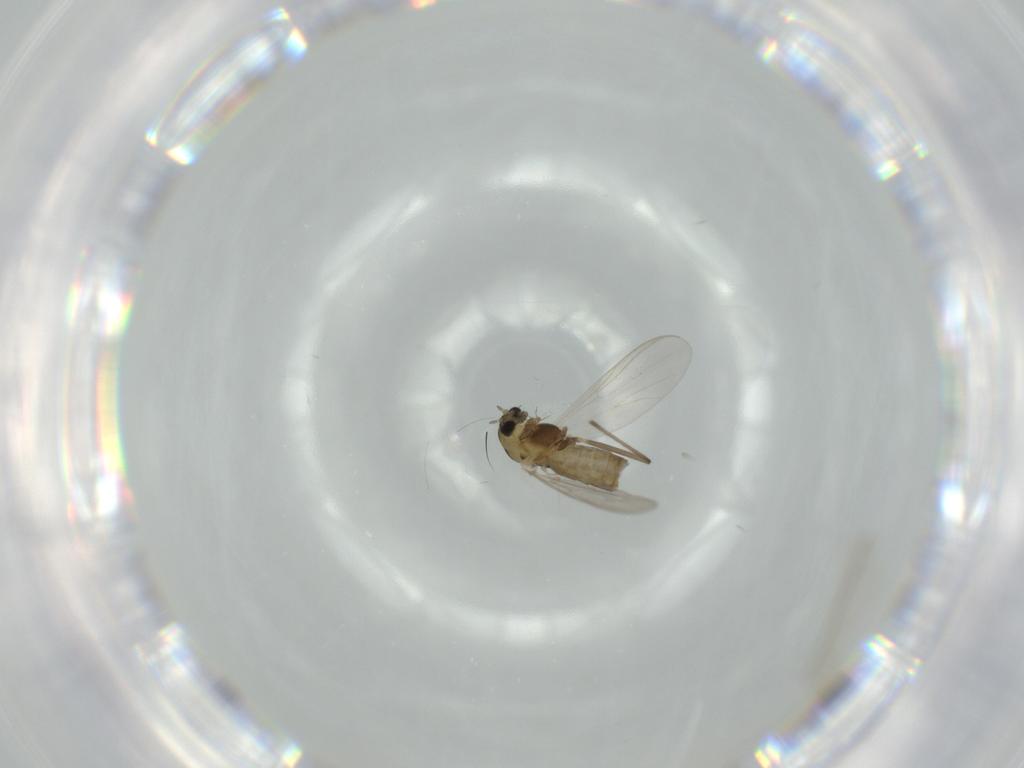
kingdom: Animalia
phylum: Arthropoda
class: Insecta
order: Diptera
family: Chironomidae
